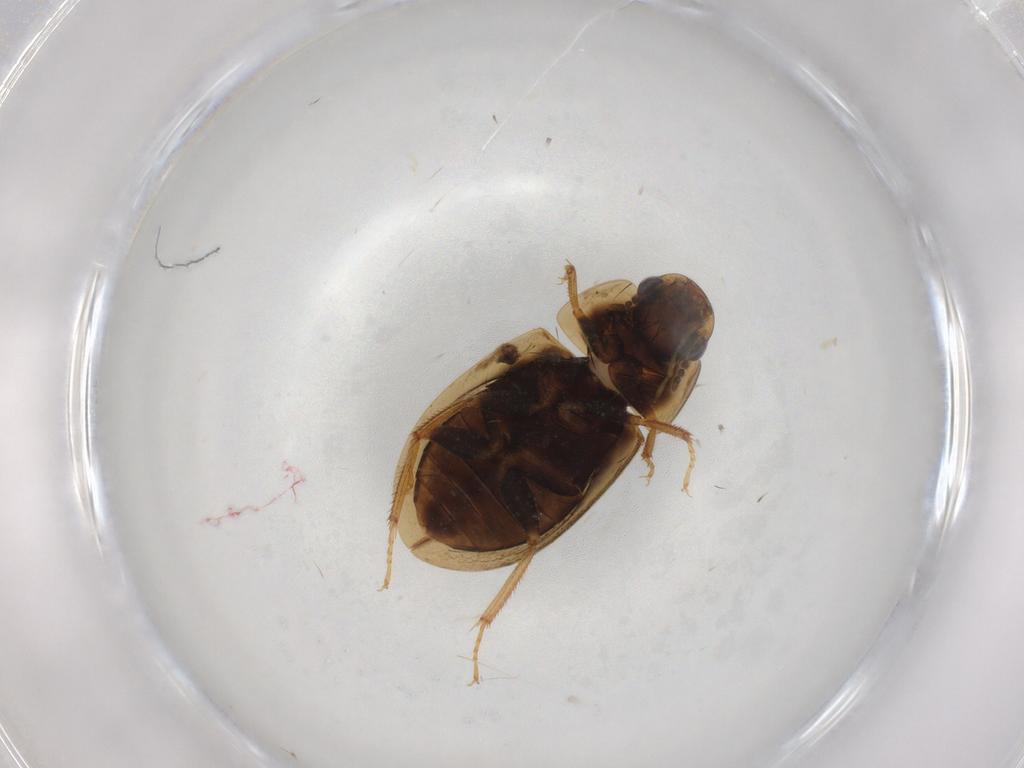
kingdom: Animalia
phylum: Arthropoda
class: Insecta
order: Coleoptera
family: Hydrophilidae
